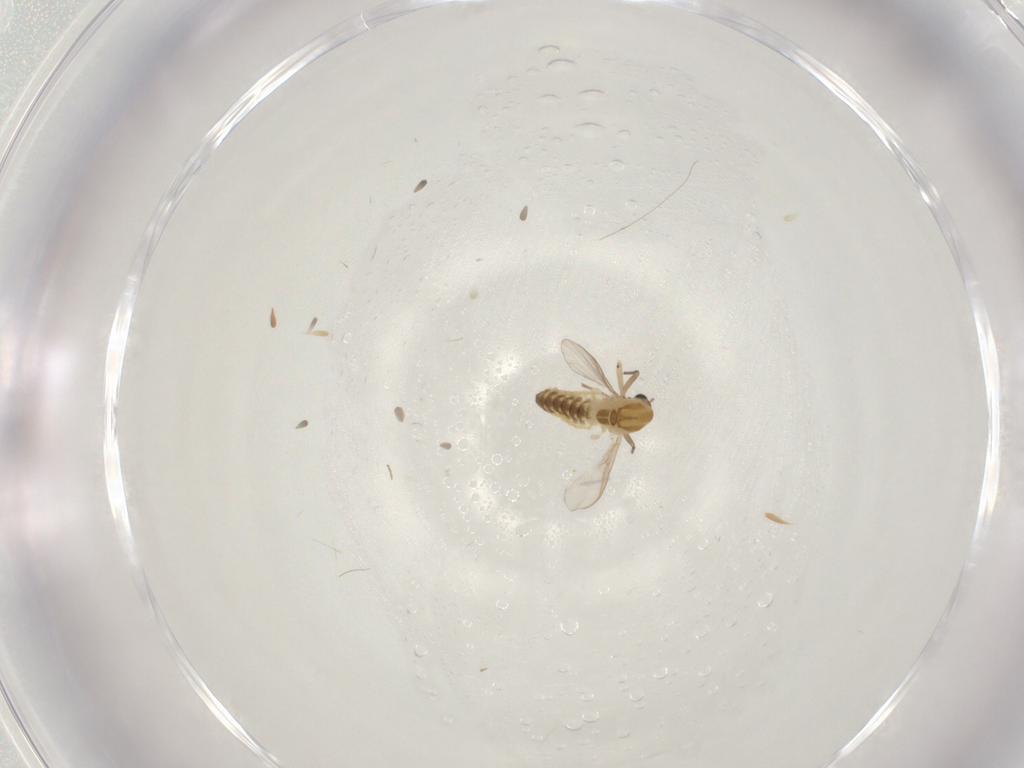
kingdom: Animalia
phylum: Arthropoda
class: Insecta
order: Diptera
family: Chironomidae
